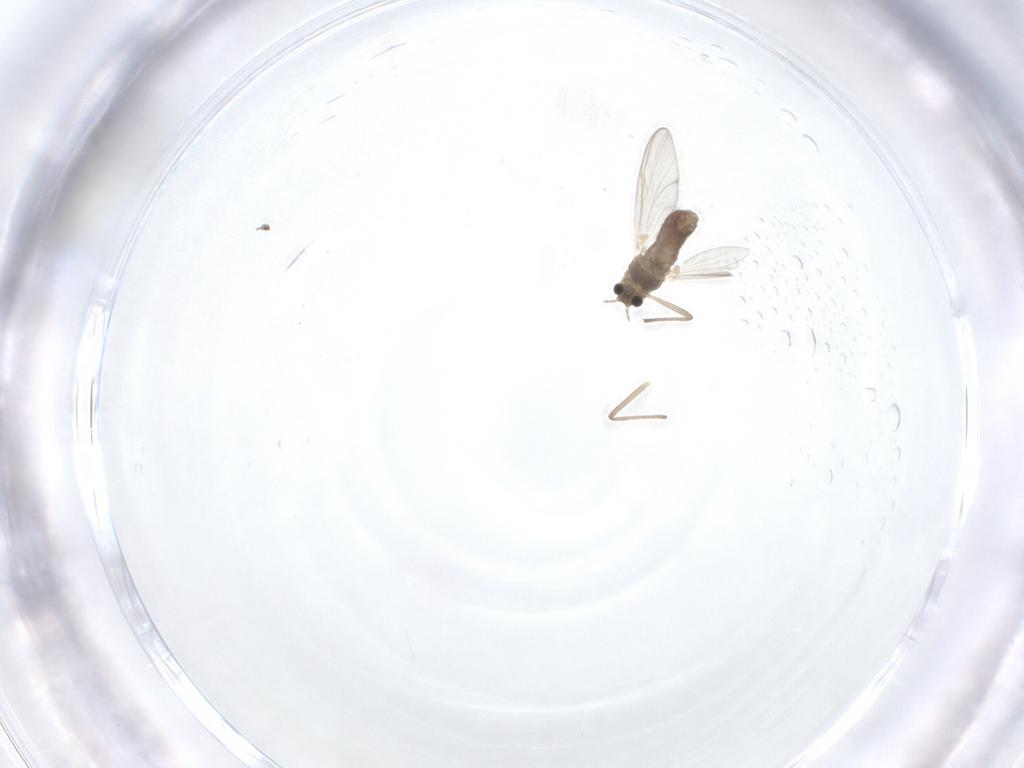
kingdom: Animalia
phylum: Arthropoda
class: Insecta
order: Diptera
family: Chironomidae
